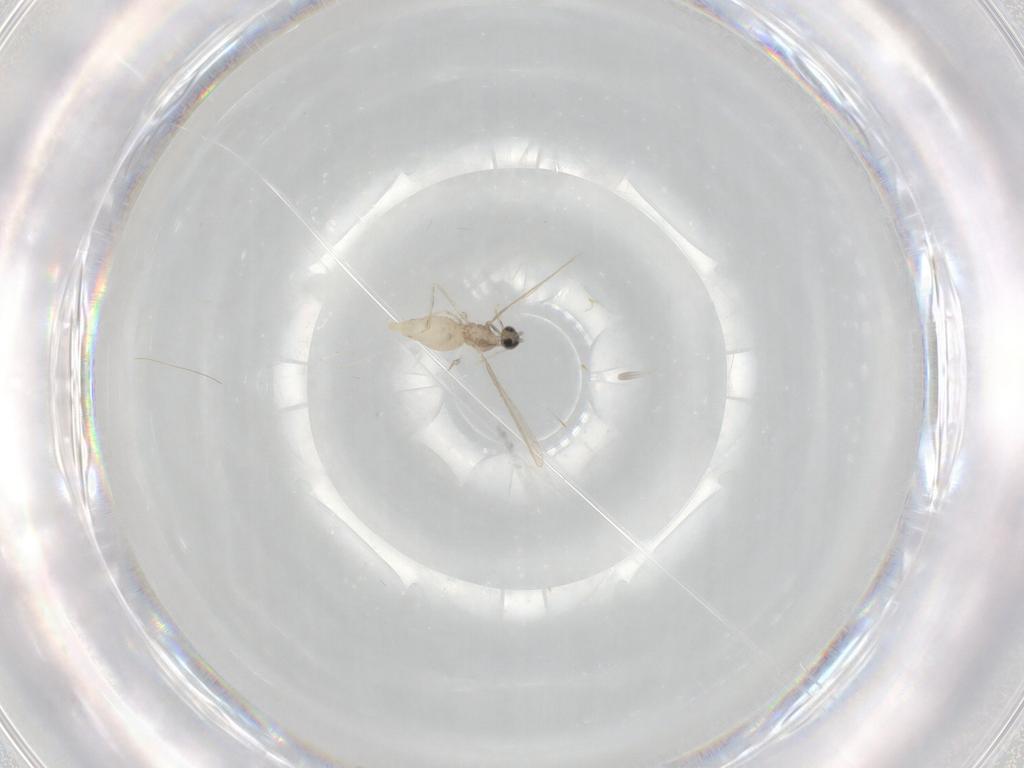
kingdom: Animalia
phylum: Arthropoda
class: Insecta
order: Diptera
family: Cecidomyiidae
